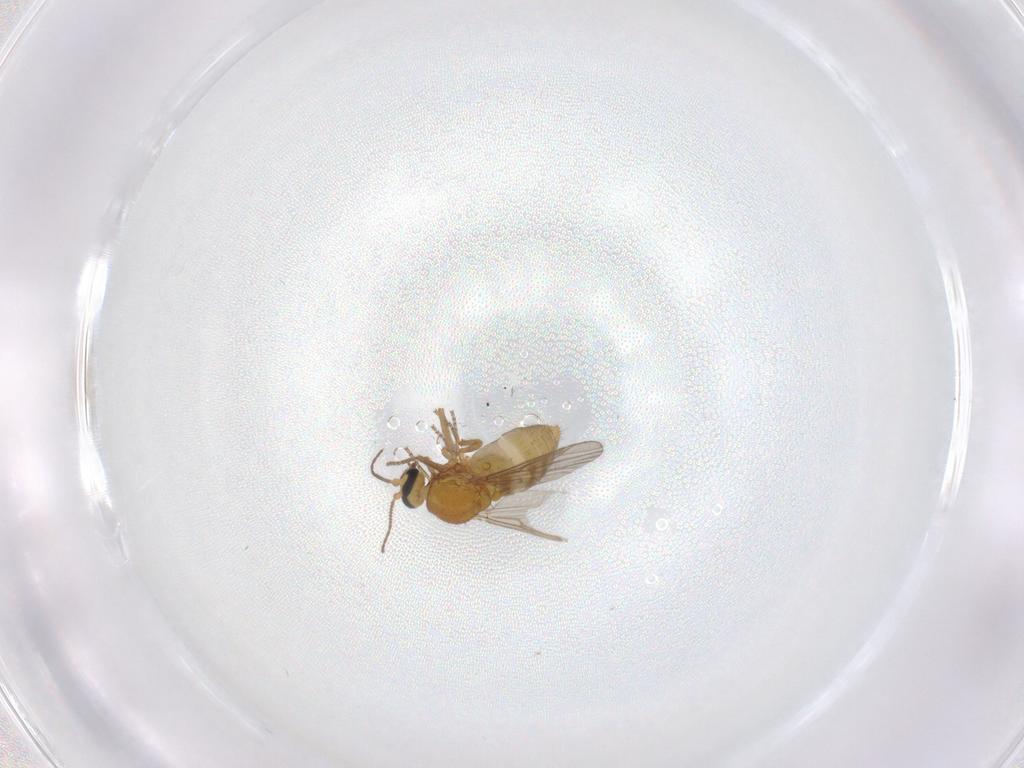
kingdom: Animalia
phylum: Arthropoda
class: Insecta
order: Diptera
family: Ceratopogonidae
